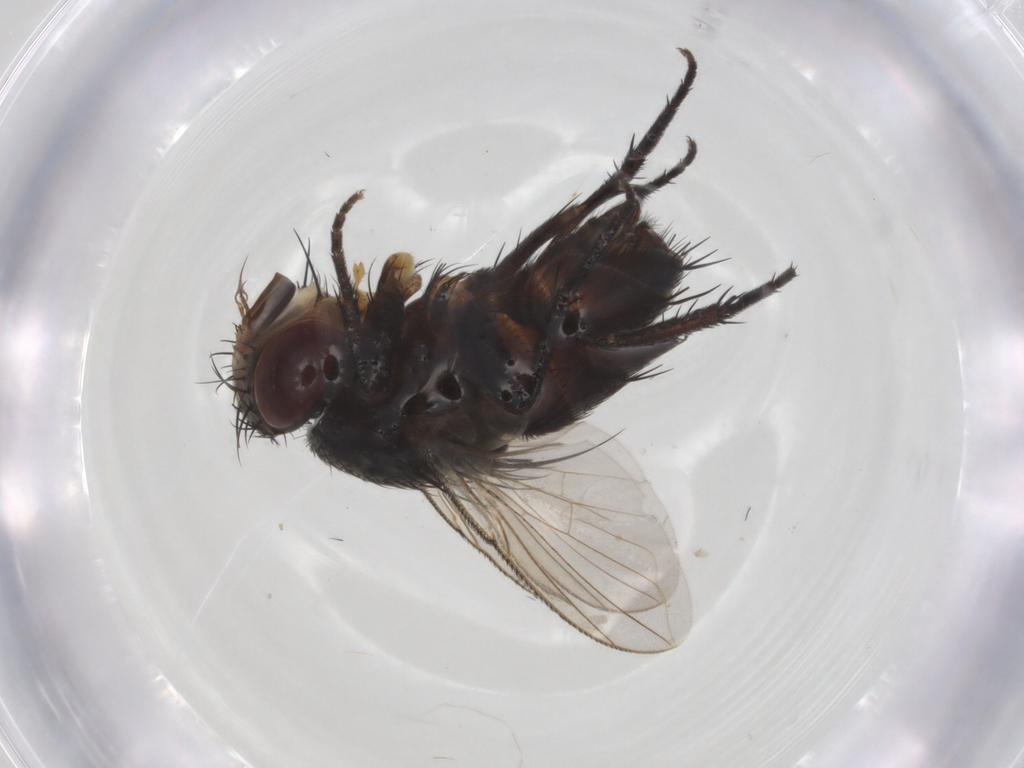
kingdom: Animalia
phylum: Arthropoda
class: Insecta
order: Diptera
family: Tachinidae
